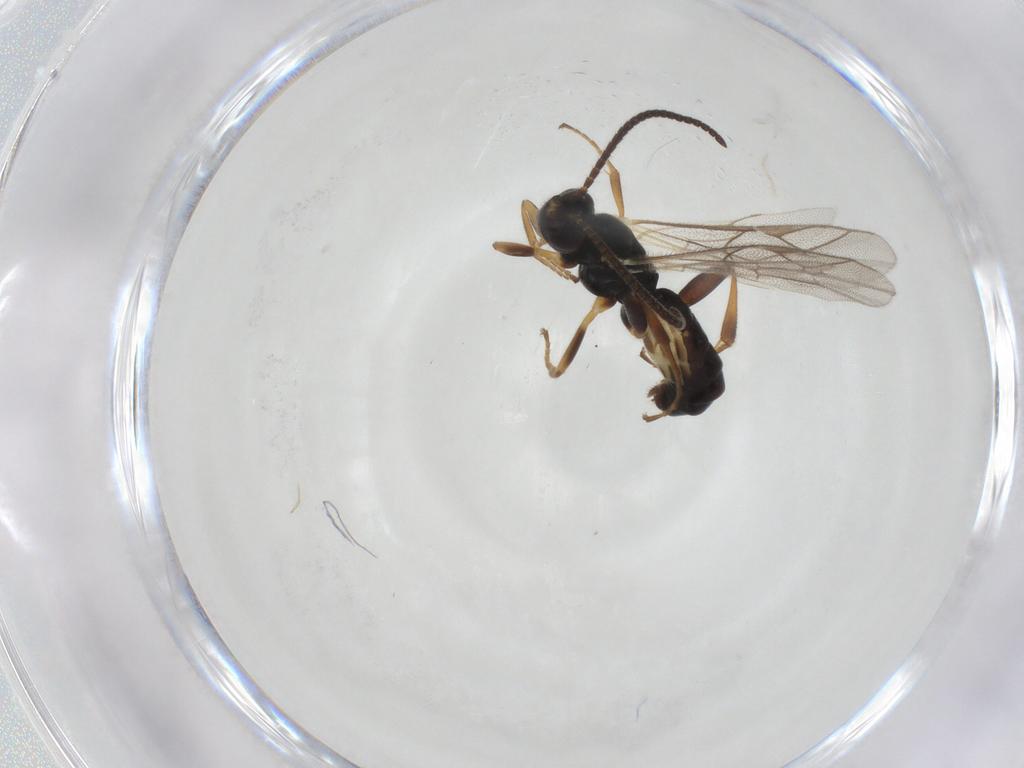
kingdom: Animalia
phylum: Arthropoda
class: Insecta
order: Hymenoptera
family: Ichneumonidae
